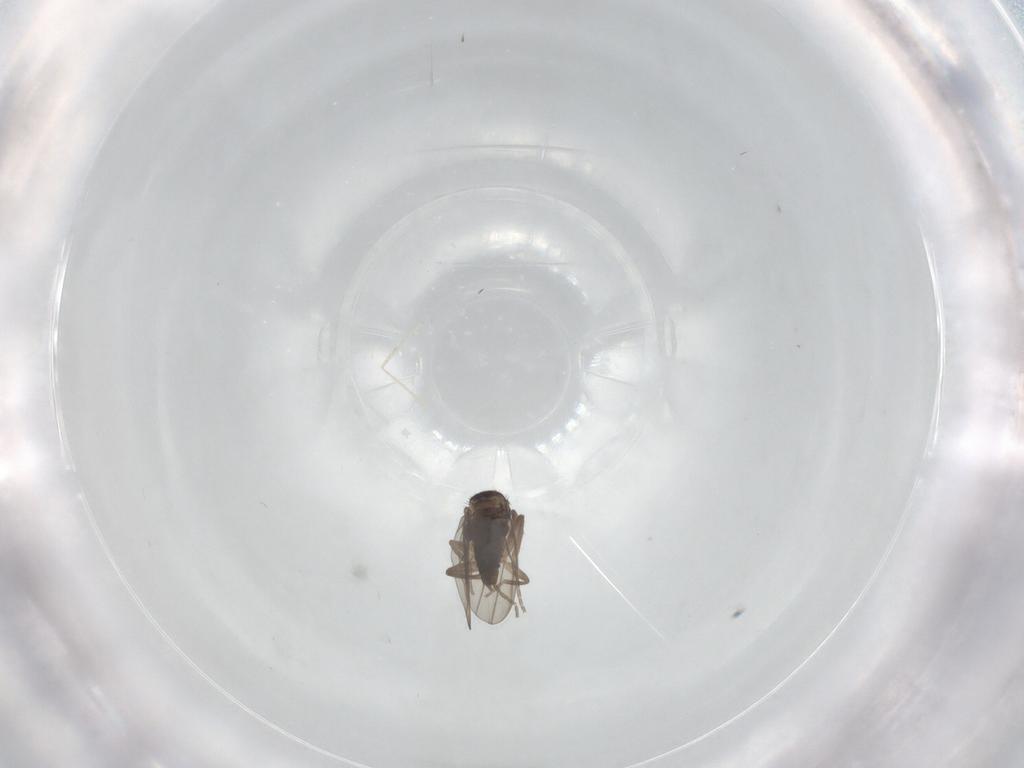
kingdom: Animalia
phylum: Arthropoda
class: Insecta
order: Diptera
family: Phoridae
